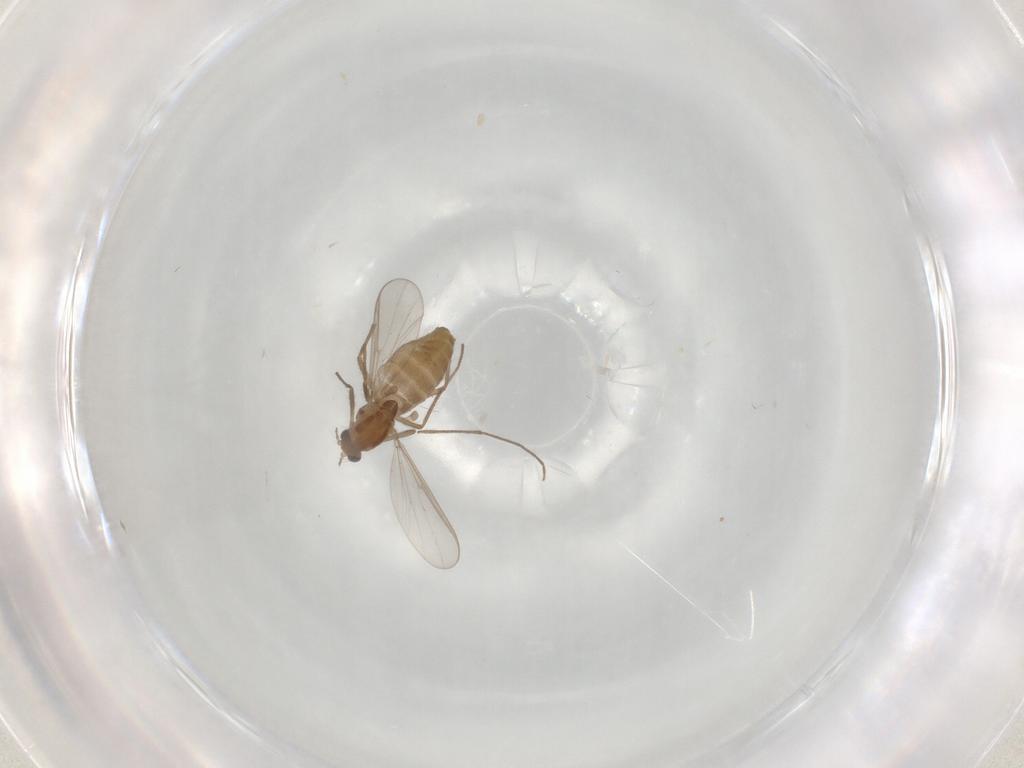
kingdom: Animalia
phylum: Arthropoda
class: Insecta
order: Diptera
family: Chironomidae
